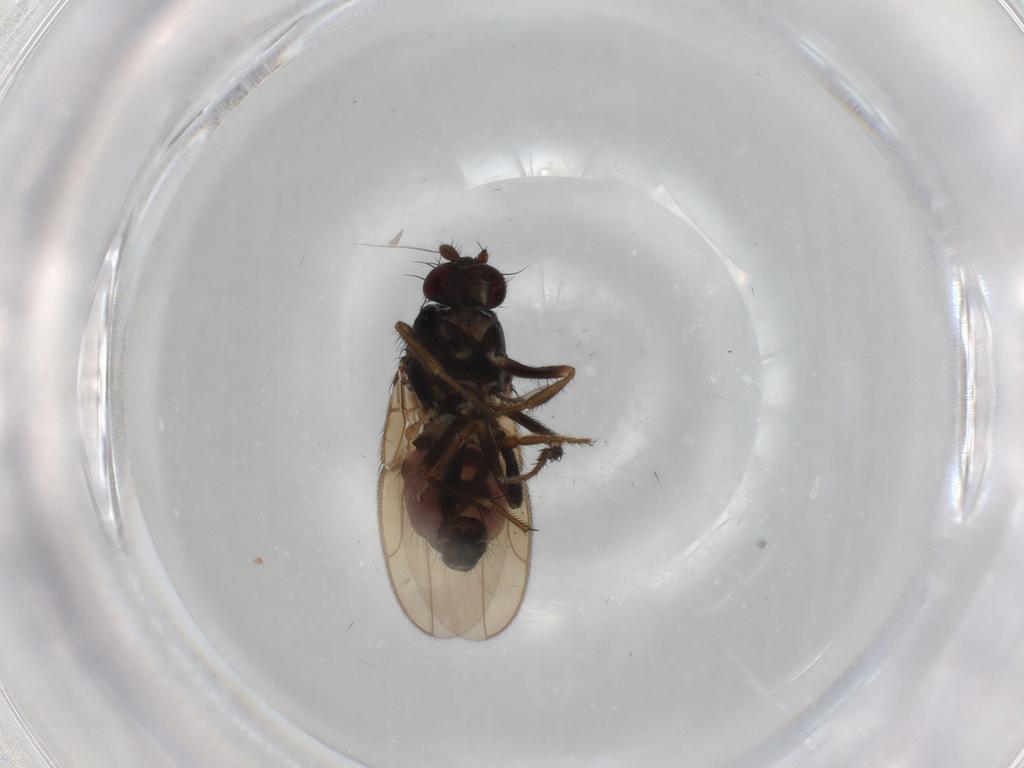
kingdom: Animalia
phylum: Arthropoda
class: Insecta
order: Diptera
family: Sphaeroceridae
